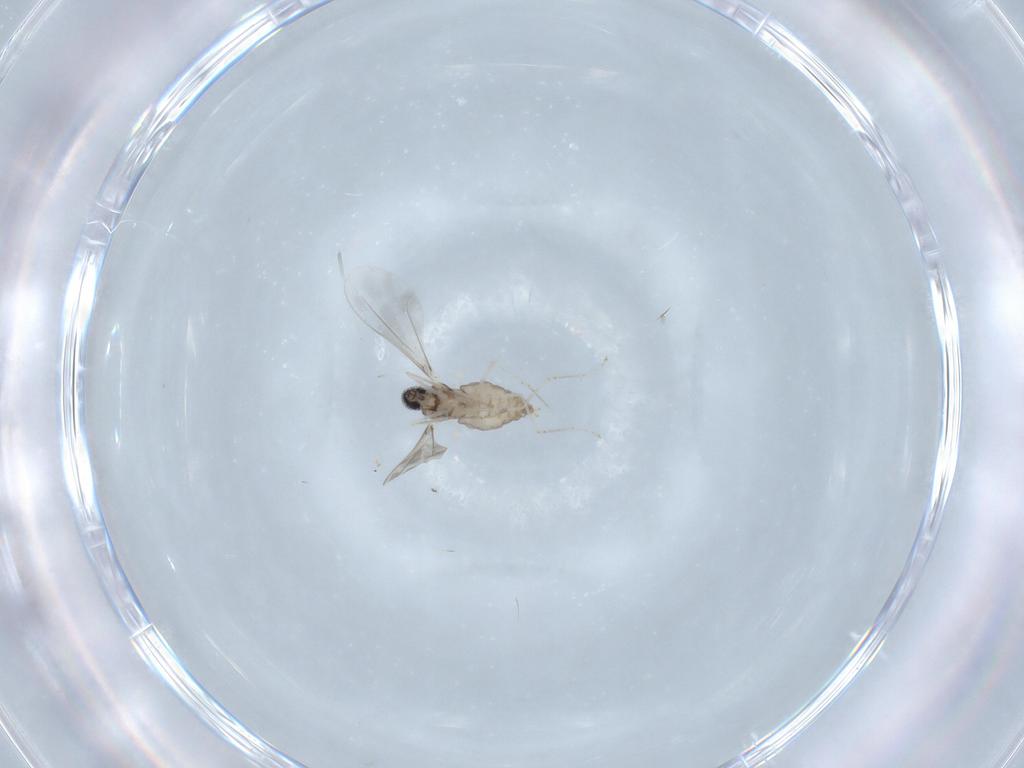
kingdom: Animalia
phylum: Arthropoda
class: Insecta
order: Diptera
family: Cecidomyiidae
